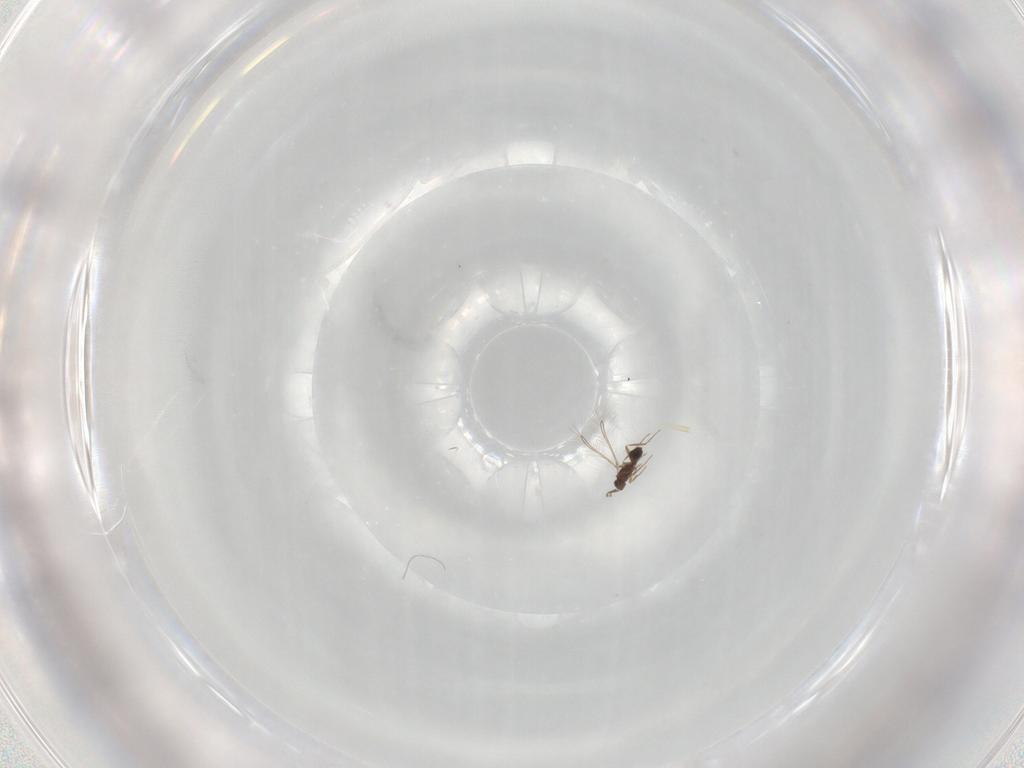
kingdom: Animalia
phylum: Arthropoda
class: Insecta
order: Hymenoptera
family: Mymaridae
